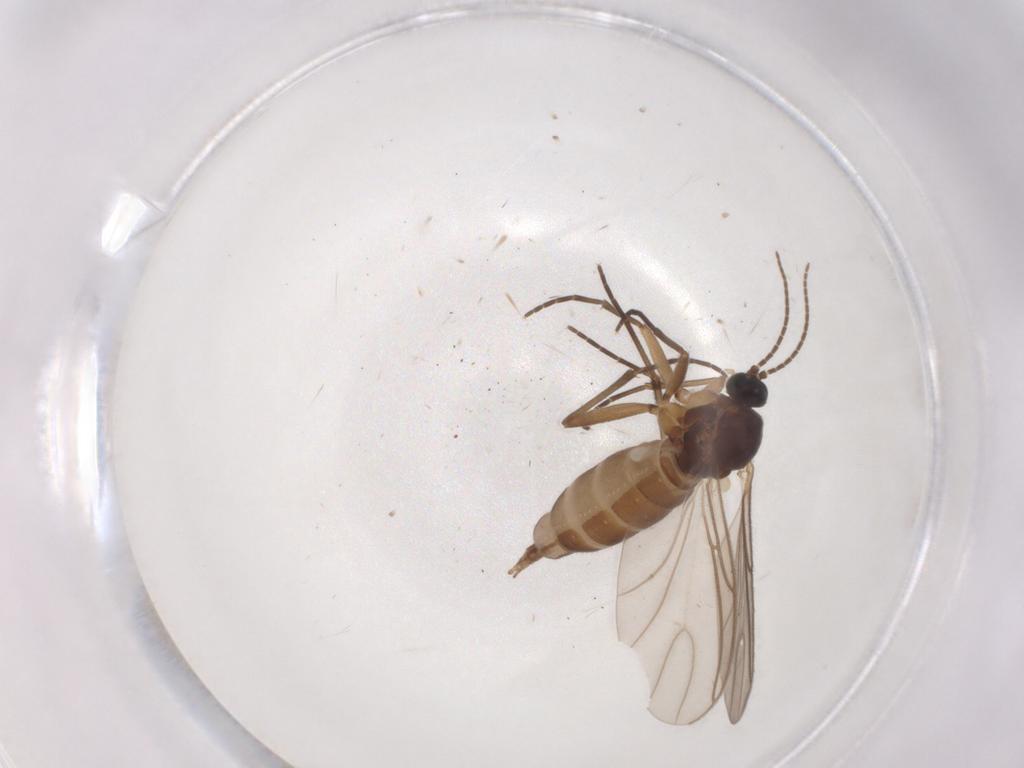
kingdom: Animalia
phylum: Arthropoda
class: Insecta
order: Diptera
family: Sciaridae
